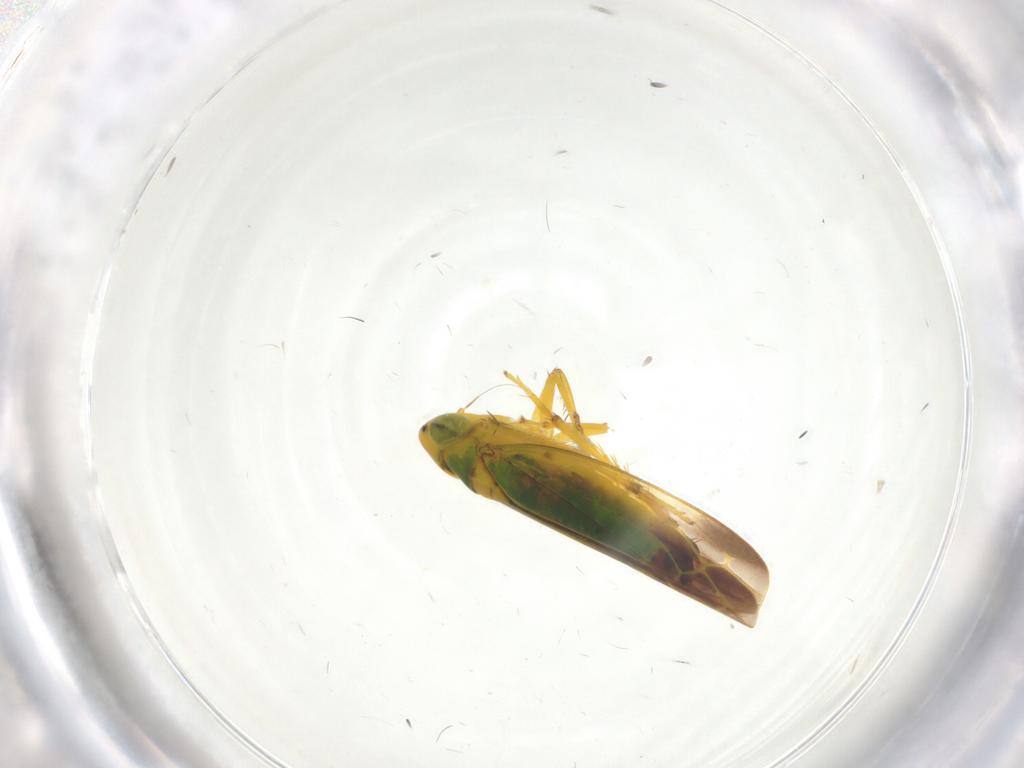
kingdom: Animalia
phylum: Arthropoda
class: Insecta
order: Hemiptera
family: Cicadellidae
